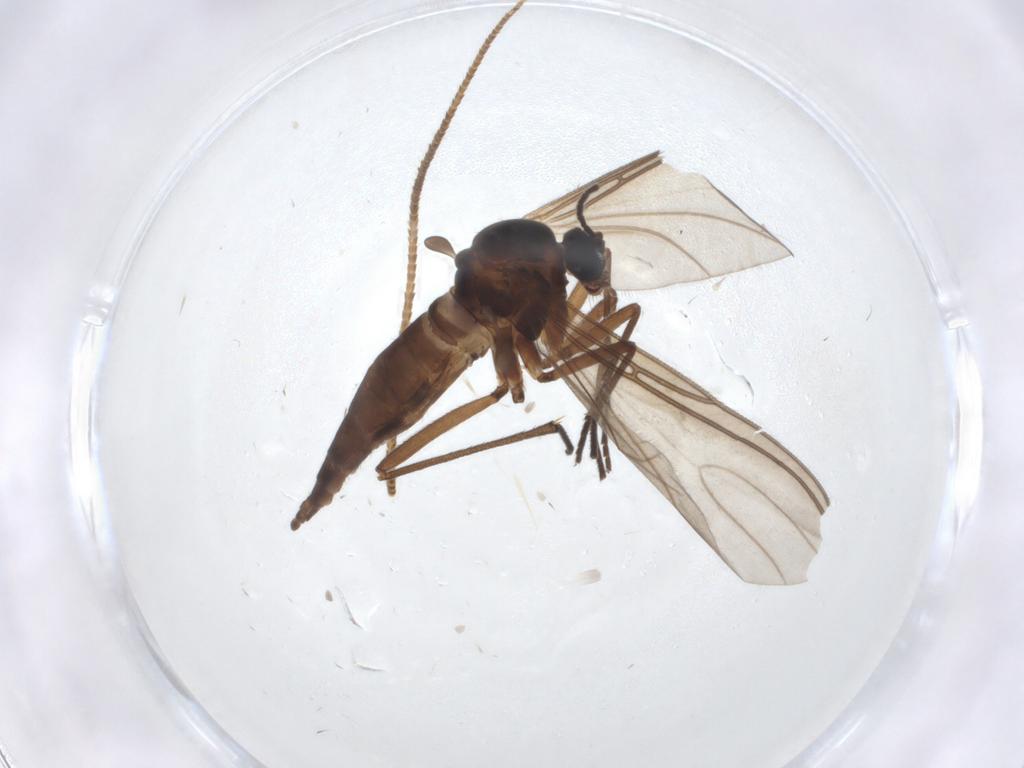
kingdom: Animalia
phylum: Arthropoda
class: Insecta
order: Diptera
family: Sciaridae
